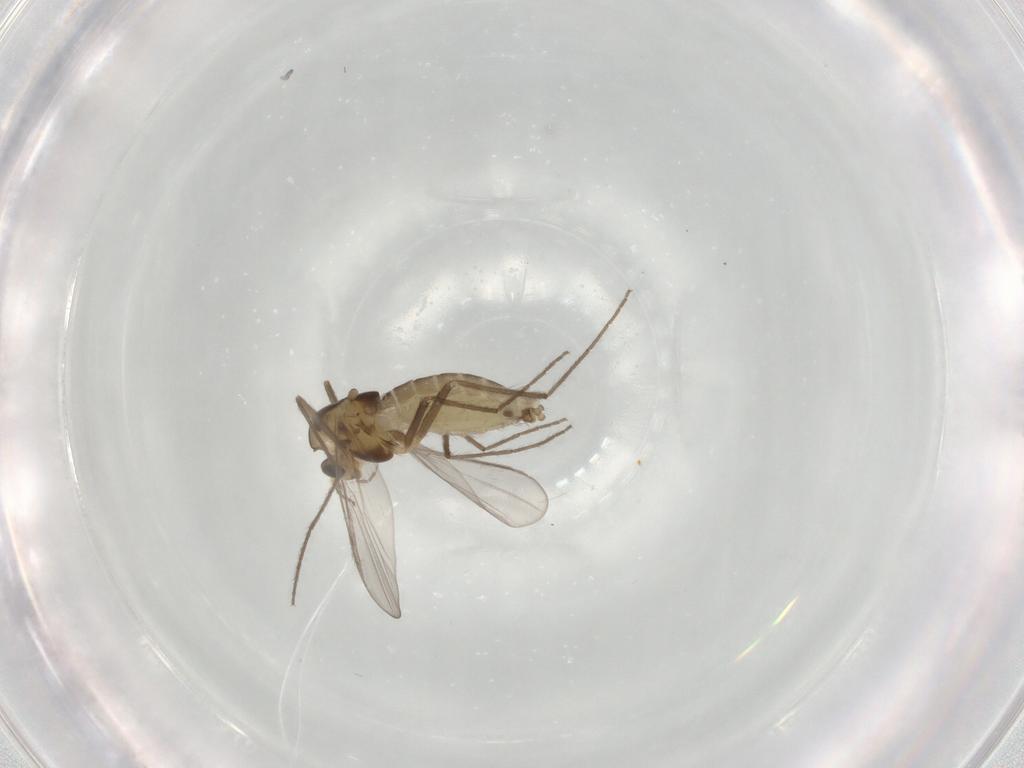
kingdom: Animalia
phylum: Arthropoda
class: Insecta
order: Diptera
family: Chironomidae
